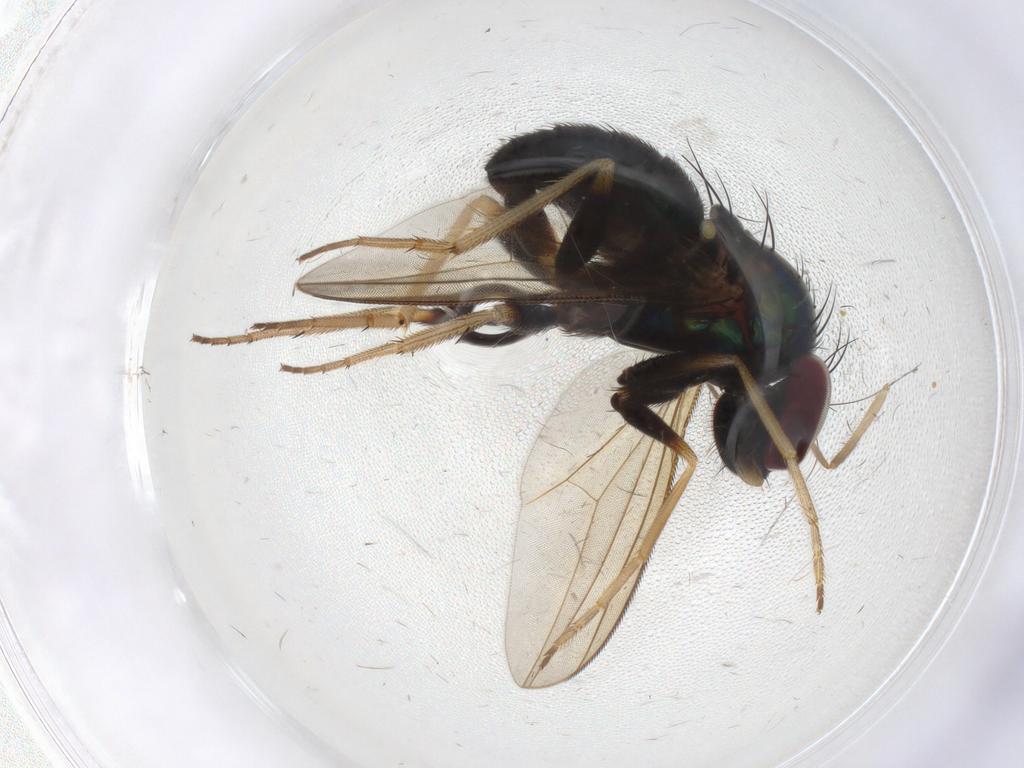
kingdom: Animalia
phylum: Arthropoda
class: Insecta
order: Diptera
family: Dolichopodidae
